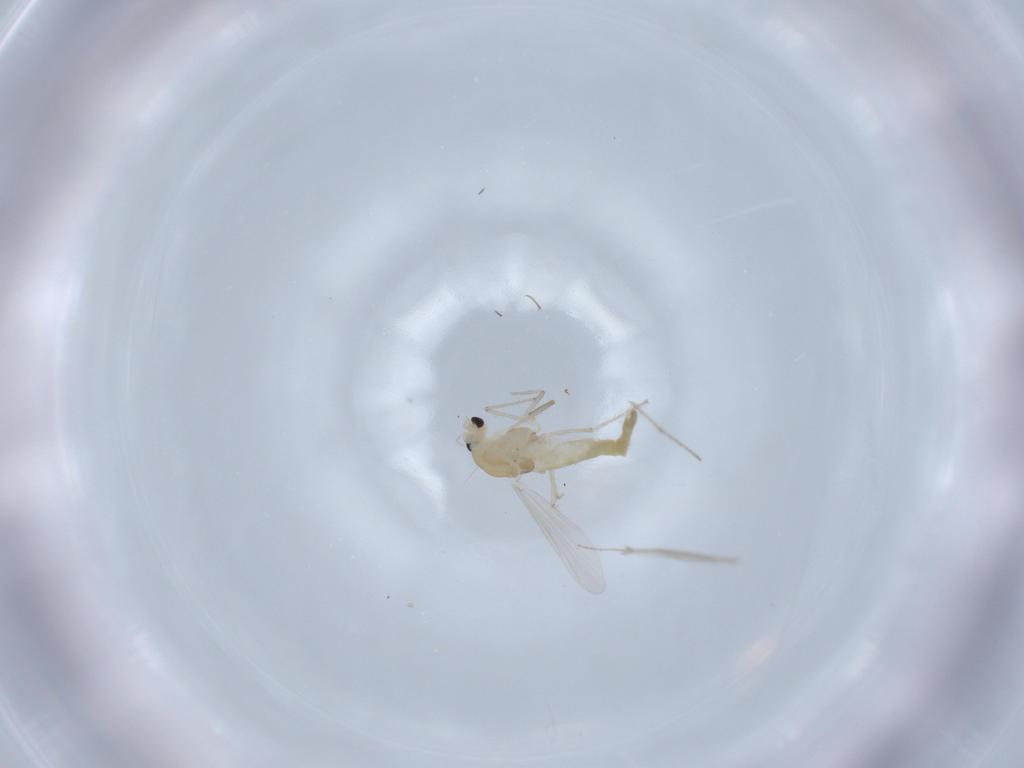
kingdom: Animalia
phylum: Arthropoda
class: Insecta
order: Diptera
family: Chironomidae
